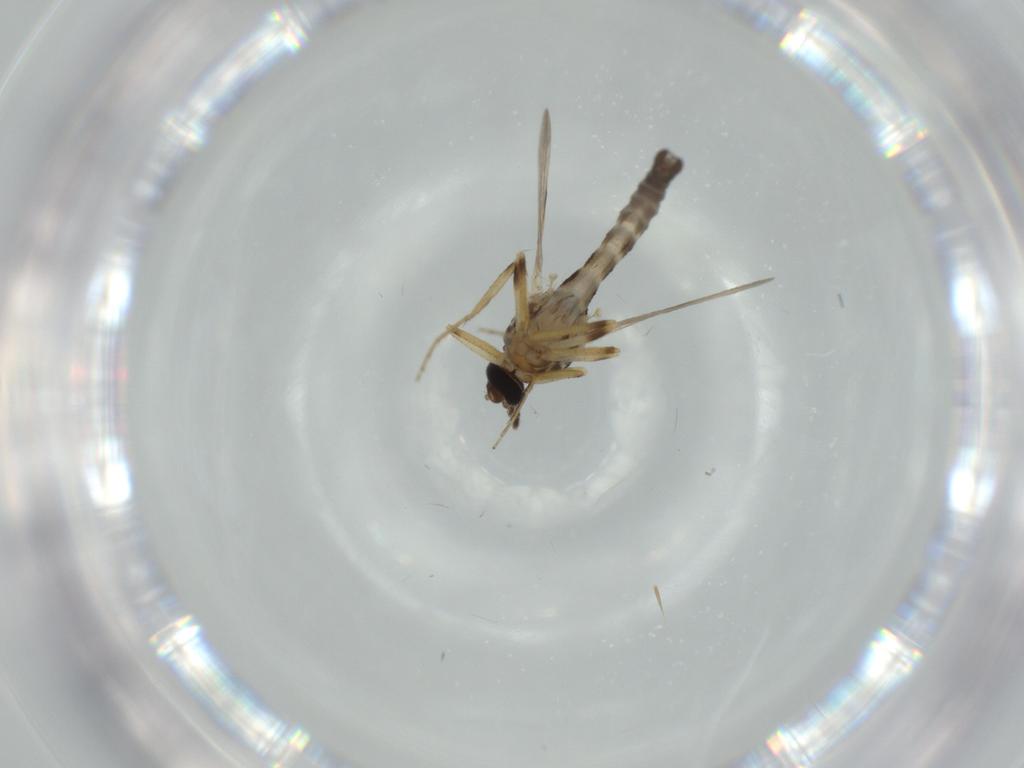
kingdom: Animalia
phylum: Arthropoda
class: Insecta
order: Diptera
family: Ceratopogonidae
